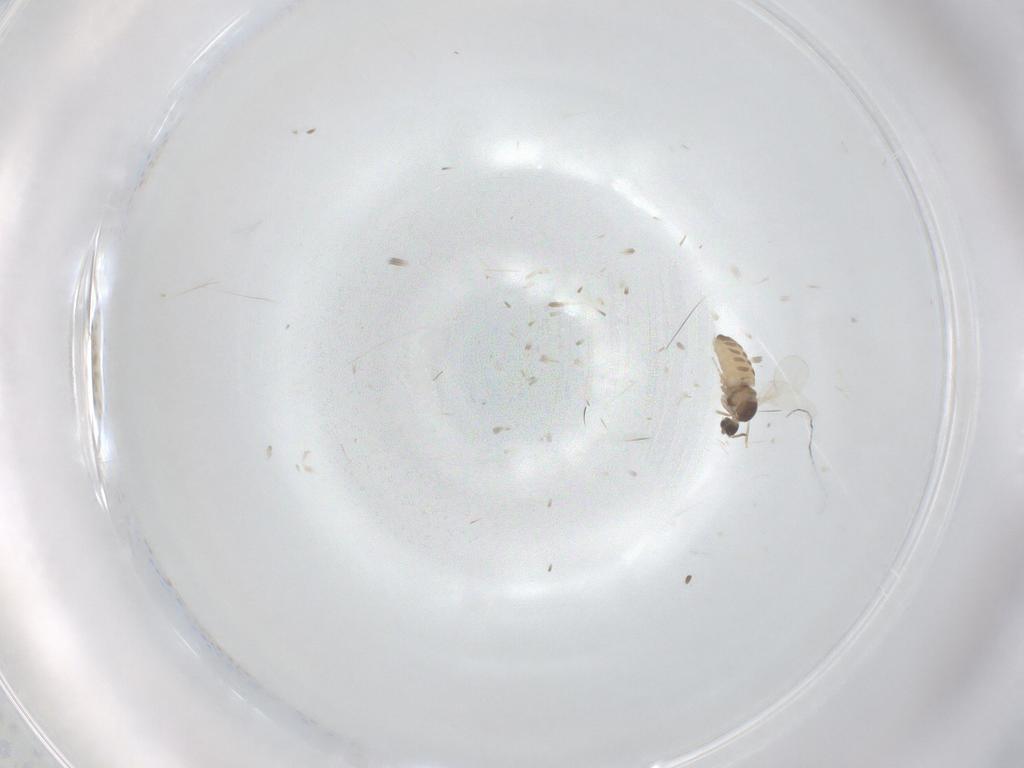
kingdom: Animalia
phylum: Arthropoda
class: Insecta
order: Diptera
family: Cecidomyiidae
